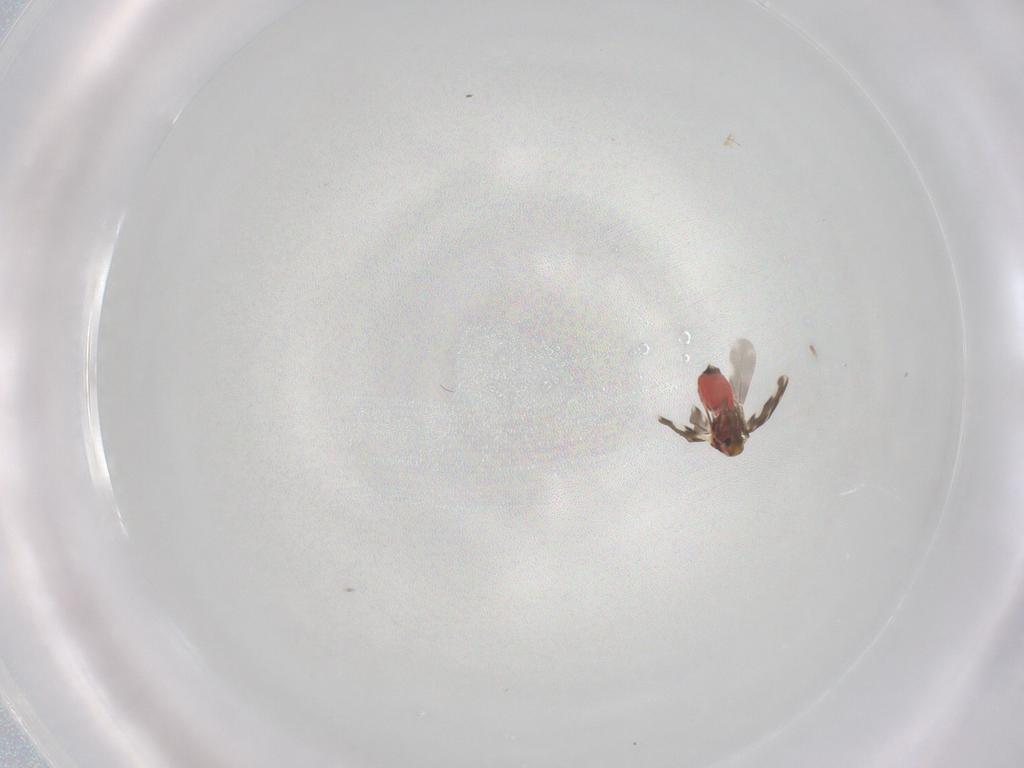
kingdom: Animalia
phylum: Arthropoda
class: Insecta
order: Hemiptera
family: Aleyrodidae
